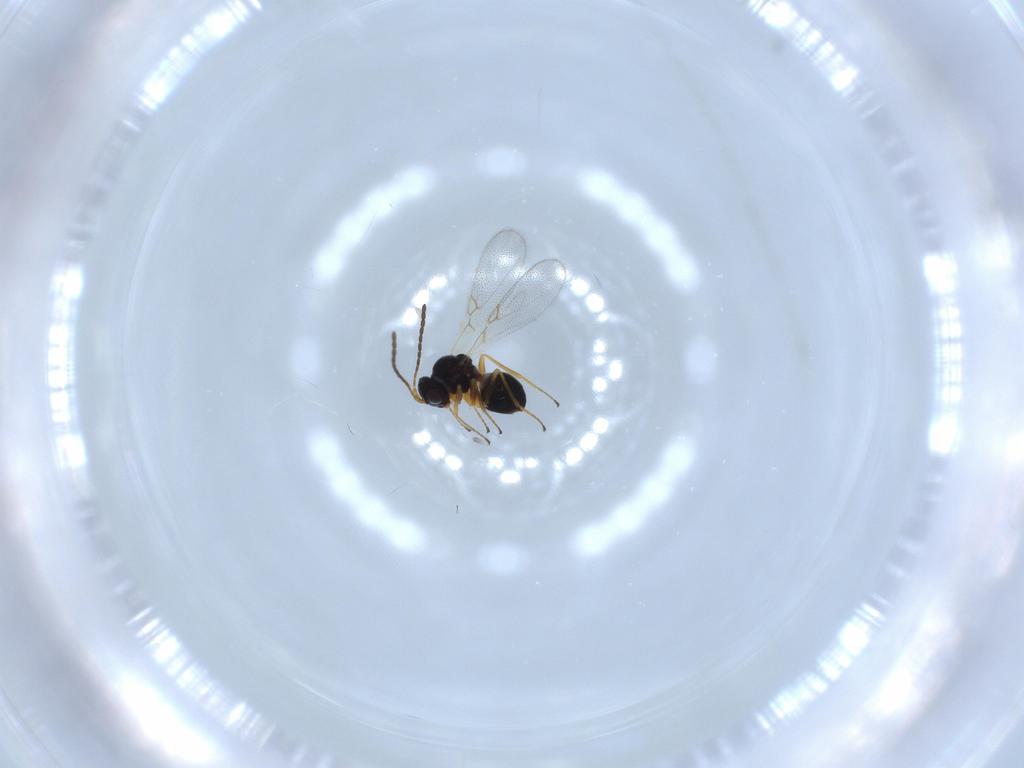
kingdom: Animalia
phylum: Arthropoda
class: Insecta
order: Hymenoptera
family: Figitidae
